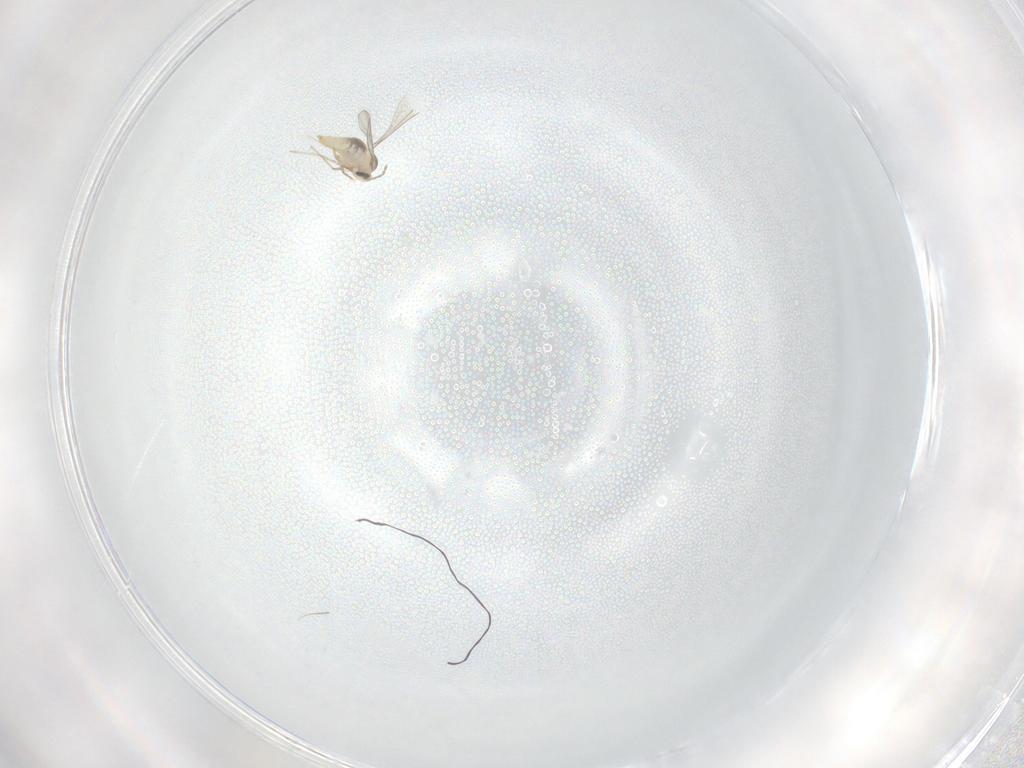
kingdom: Animalia
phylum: Arthropoda
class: Insecta
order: Diptera
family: Cecidomyiidae
